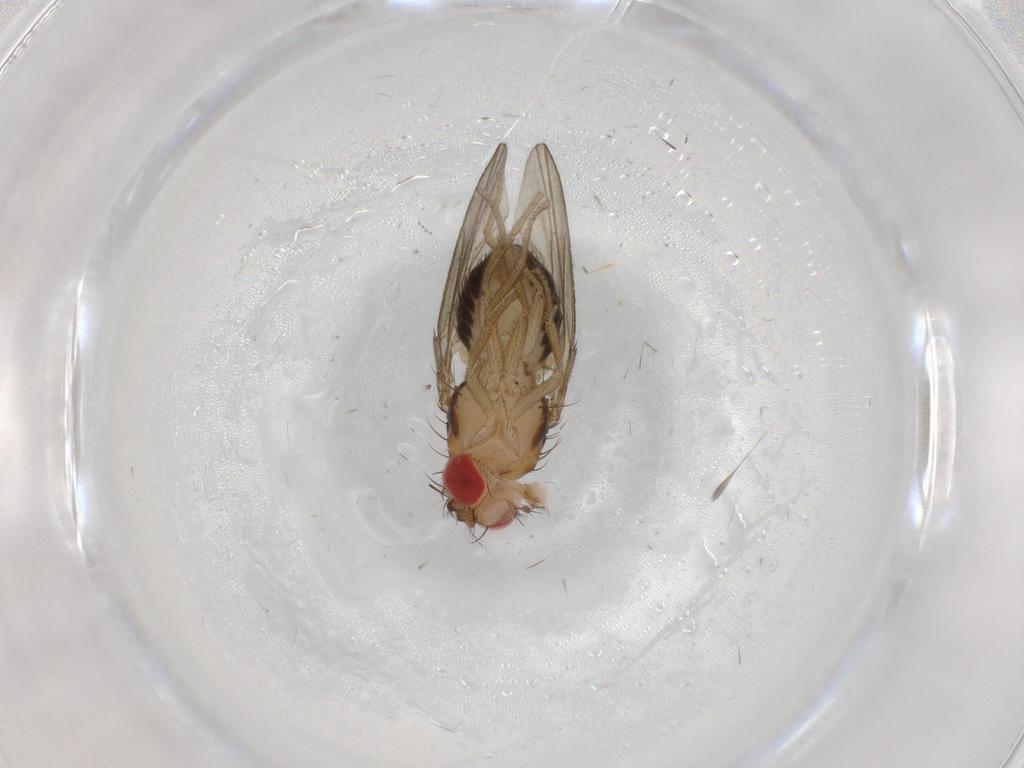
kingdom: Animalia
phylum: Arthropoda
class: Insecta
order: Diptera
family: Drosophilidae
